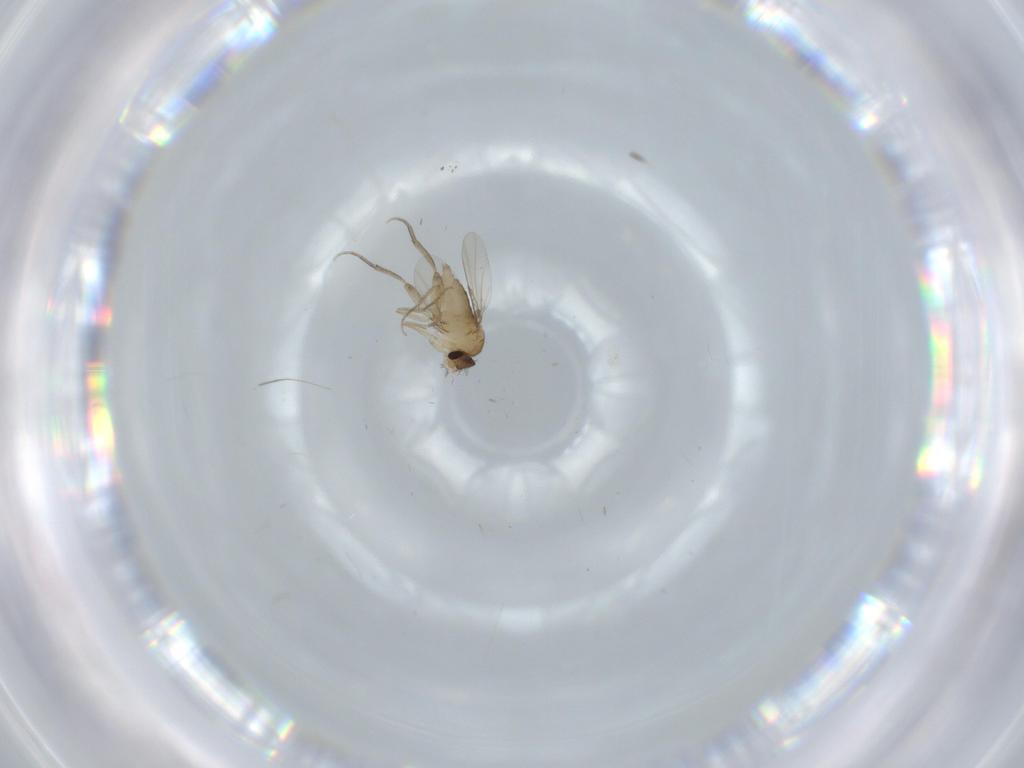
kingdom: Animalia
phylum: Arthropoda
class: Insecta
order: Diptera
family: Phoridae
